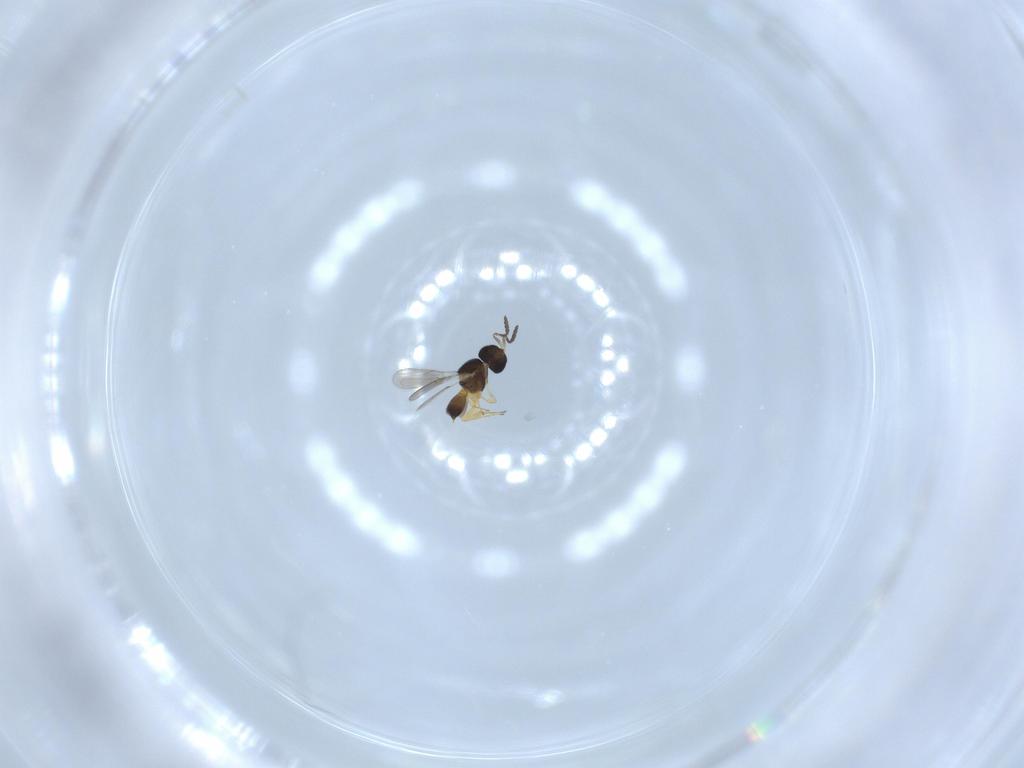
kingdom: Animalia
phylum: Arthropoda
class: Insecta
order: Hymenoptera
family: Scelionidae
